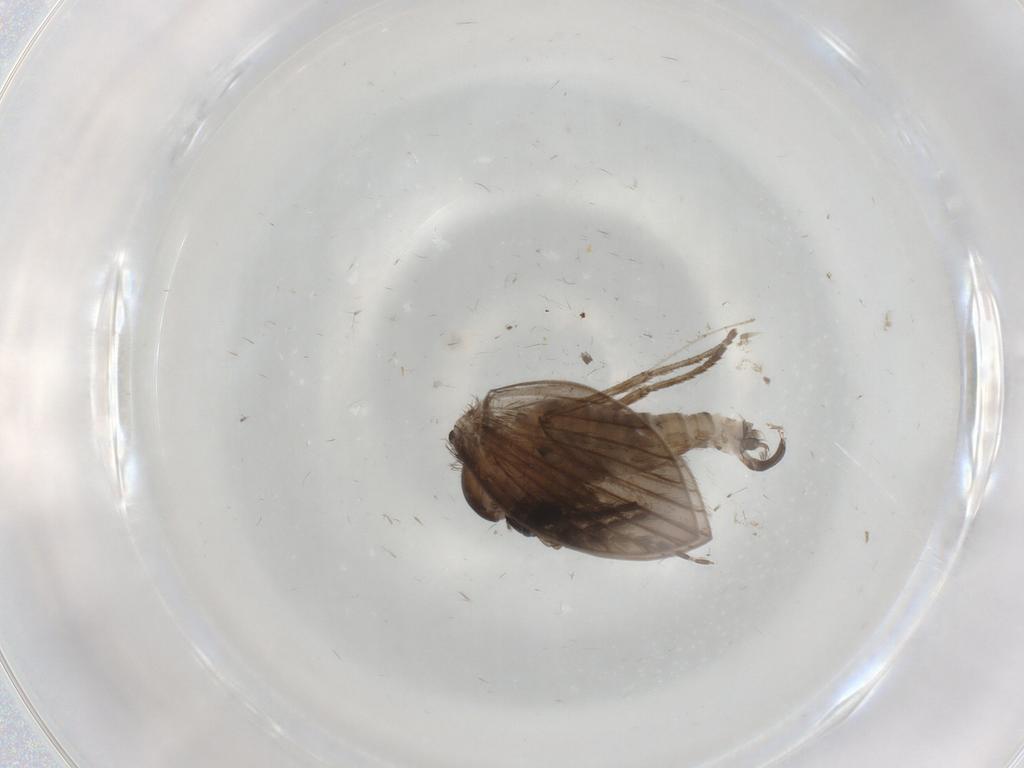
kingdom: Animalia
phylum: Arthropoda
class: Insecta
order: Diptera
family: Chironomidae
